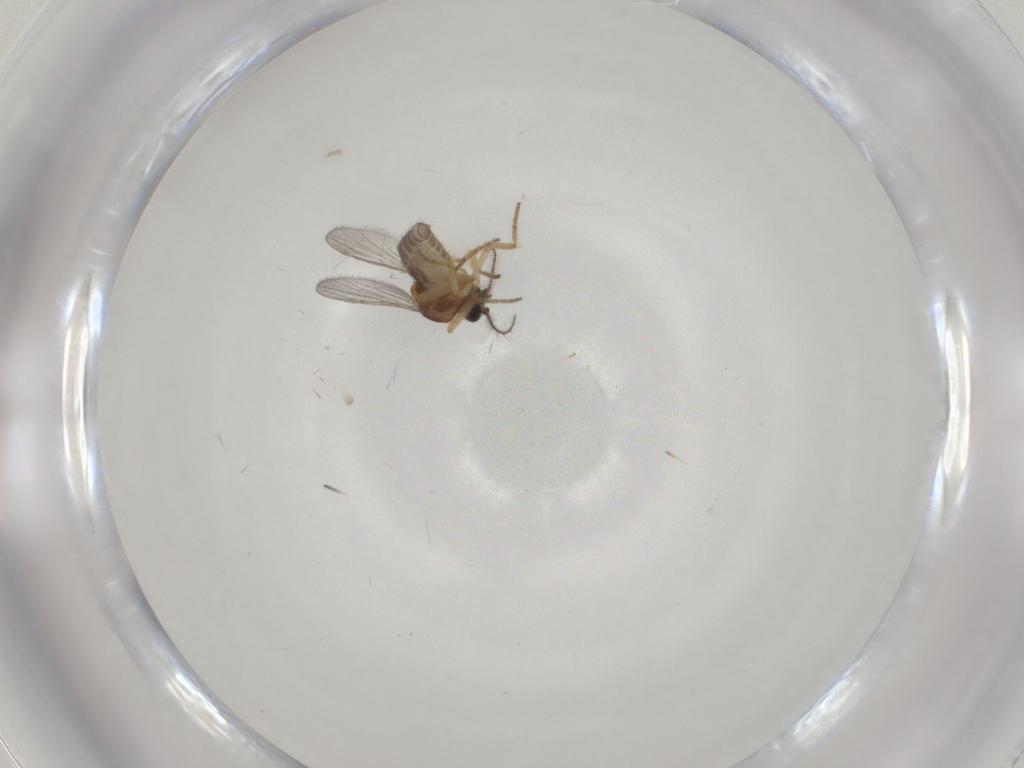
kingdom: Animalia
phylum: Arthropoda
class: Insecta
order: Diptera
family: Ceratopogonidae
